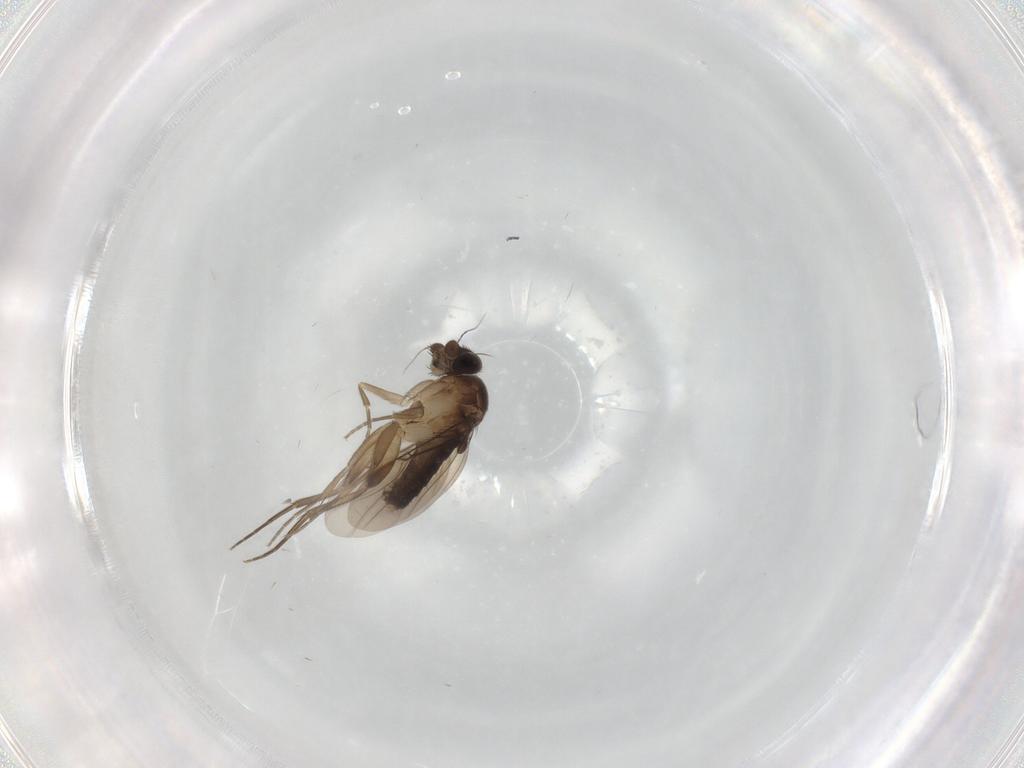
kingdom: Animalia
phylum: Arthropoda
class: Insecta
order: Diptera
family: Phoridae
